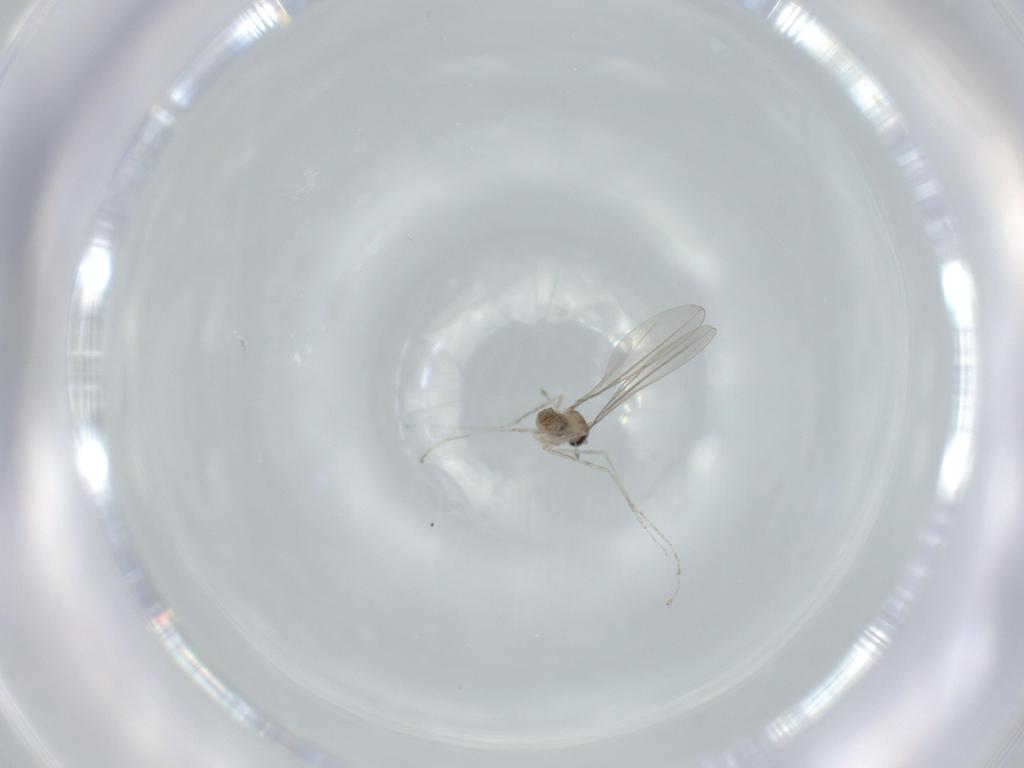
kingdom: Animalia
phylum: Arthropoda
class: Insecta
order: Diptera
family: Cecidomyiidae
